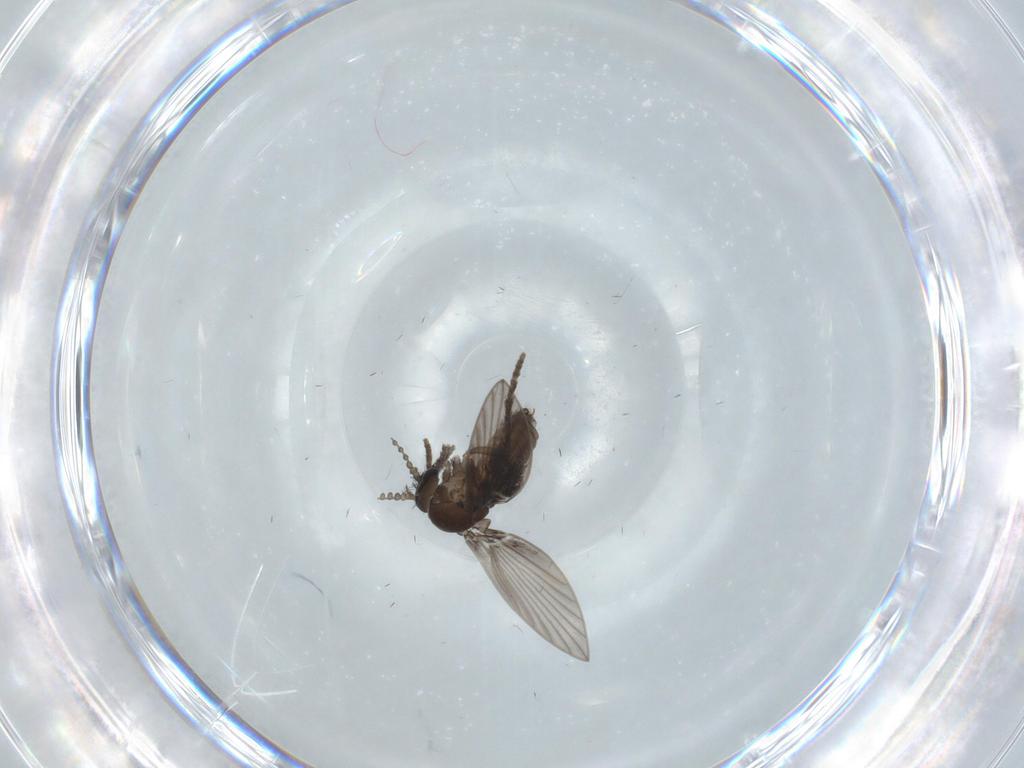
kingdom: Animalia
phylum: Arthropoda
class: Insecta
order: Diptera
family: Psychodidae
